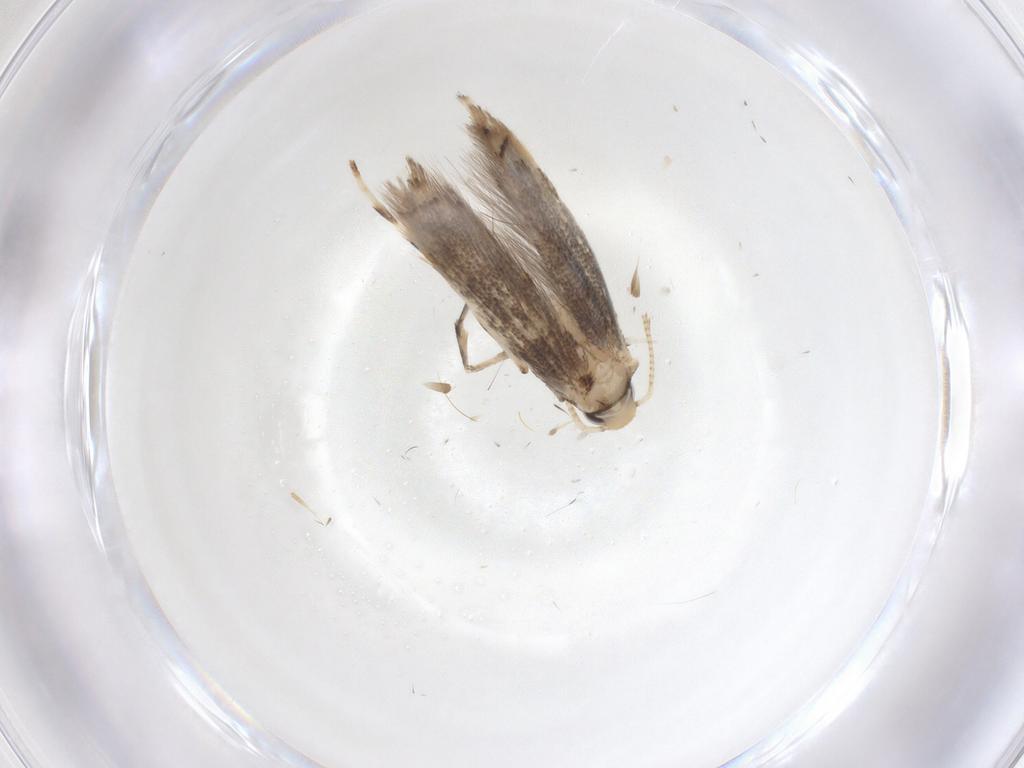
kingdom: Animalia
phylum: Arthropoda
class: Insecta
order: Lepidoptera
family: Gracillariidae
